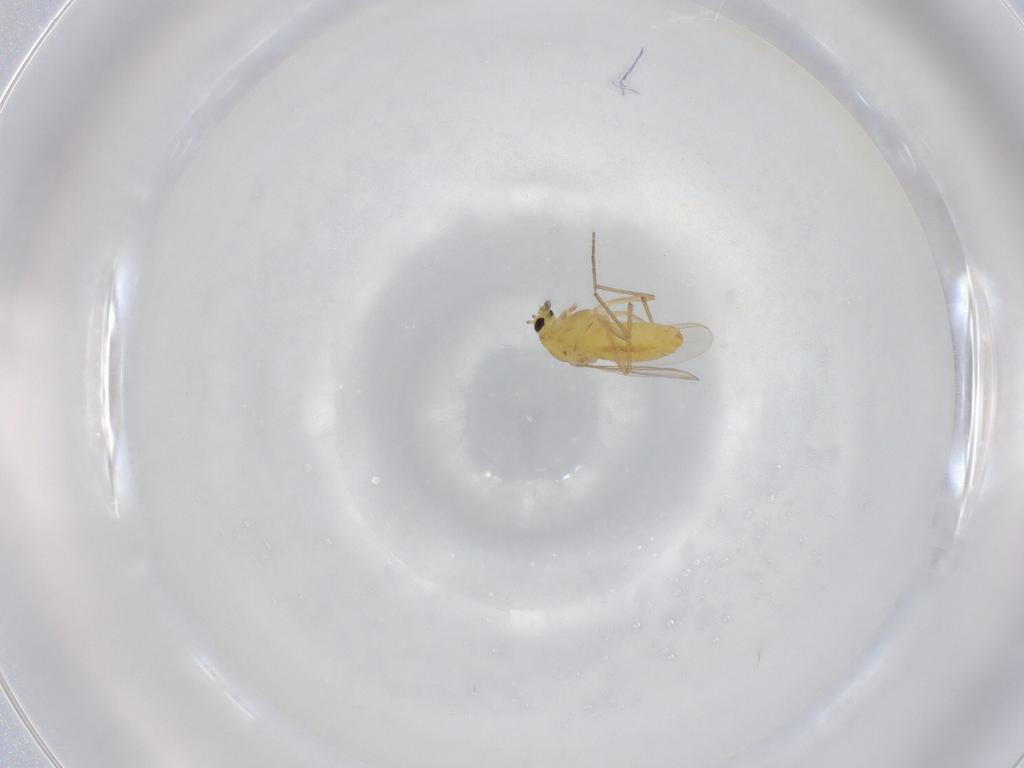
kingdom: Animalia
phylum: Arthropoda
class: Insecta
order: Diptera
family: Chironomidae
